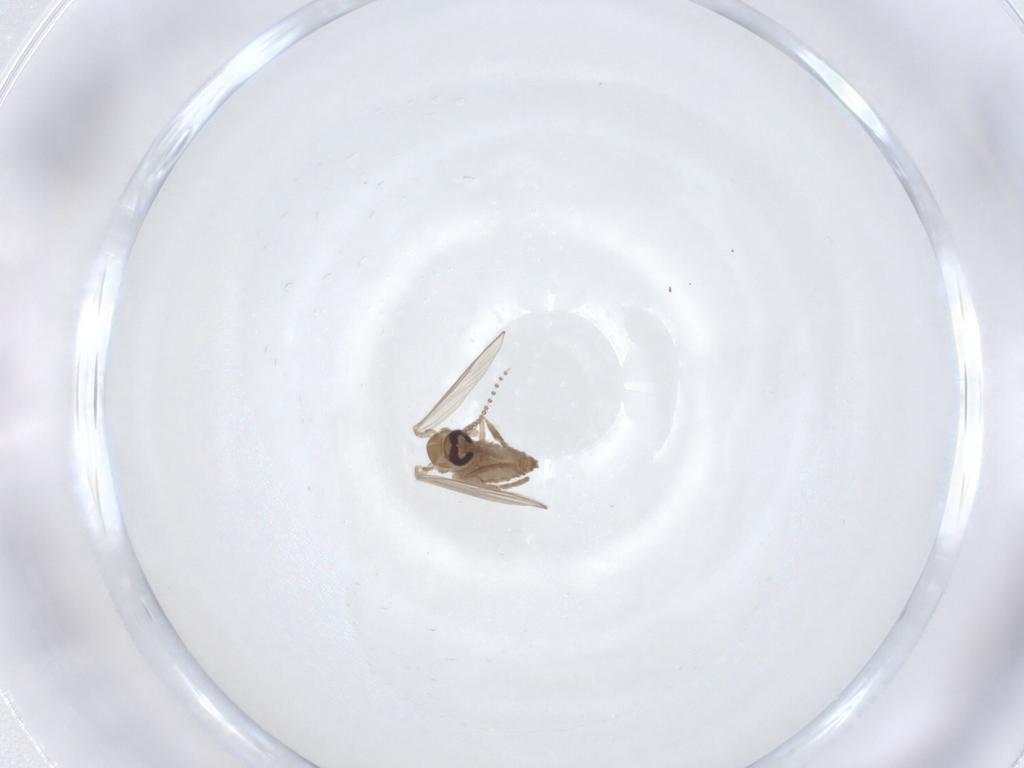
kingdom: Animalia
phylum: Arthropoda
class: Insecta
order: Diptera
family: Psychodidae
